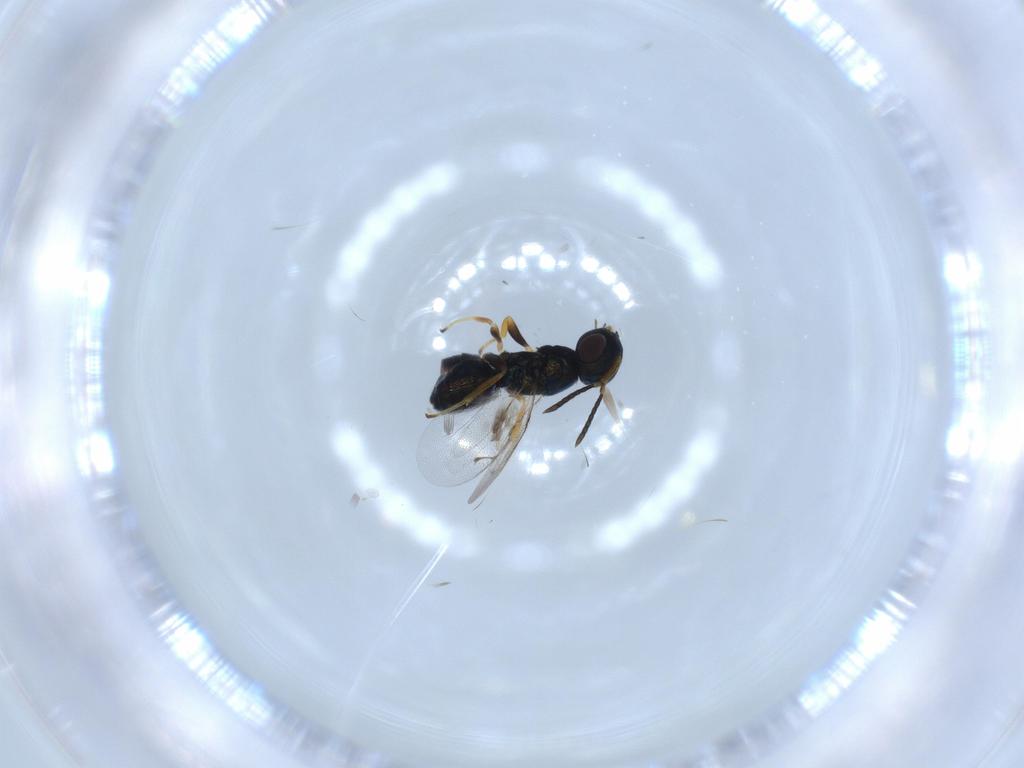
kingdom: Animalia
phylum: Arthropoda
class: Insecta
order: Hymenoptera
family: Pteromalidae
